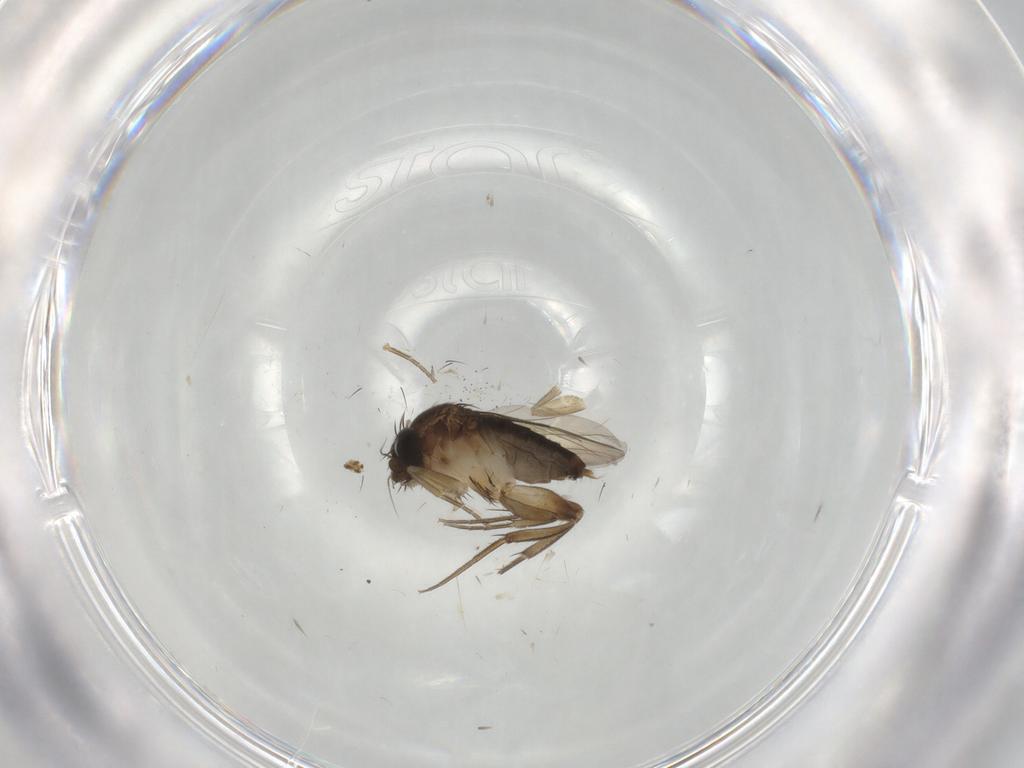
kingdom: Animalia
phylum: Arthropoda
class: Insecta
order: Diptera
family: Phoridae
